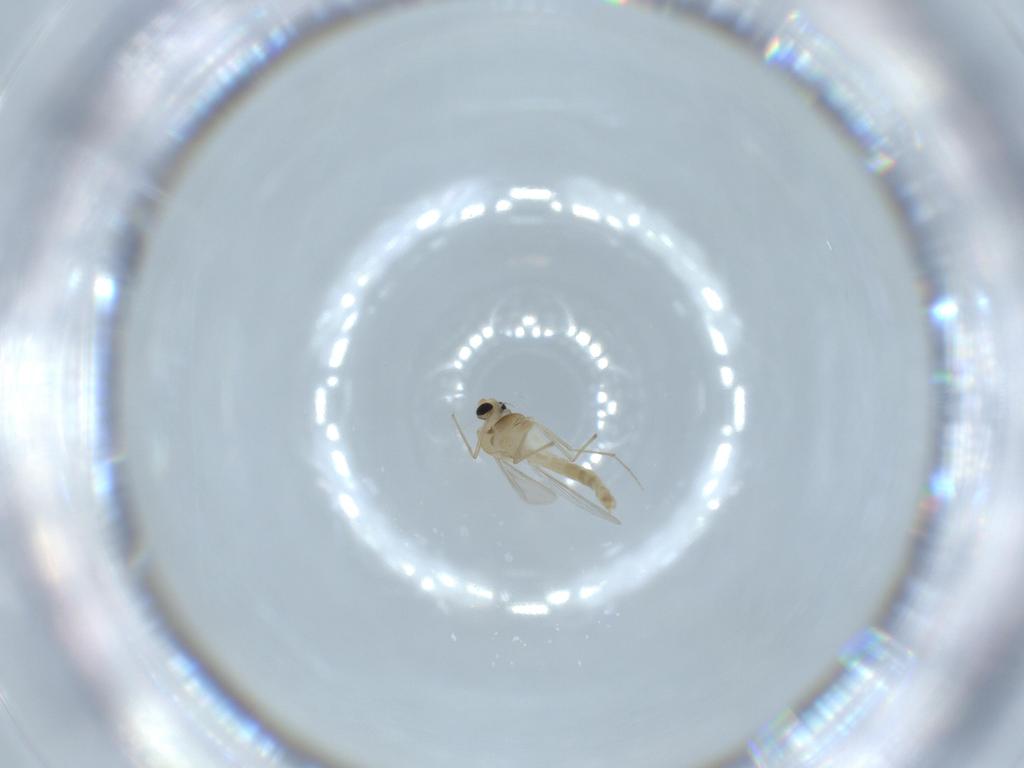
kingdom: Animalia
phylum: Arthropoda
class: Insecta
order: Diptera
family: Chironomidae
